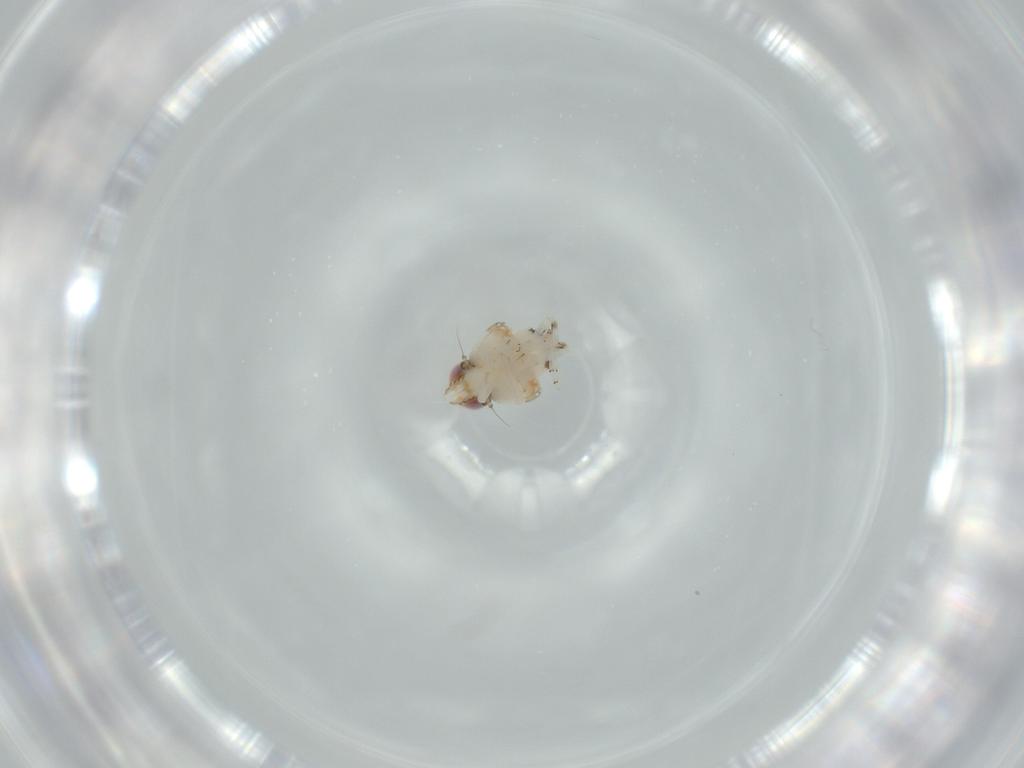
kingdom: Animalia
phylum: Arthropoda
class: Insecta
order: Hemiptera
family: Nogodinidae
